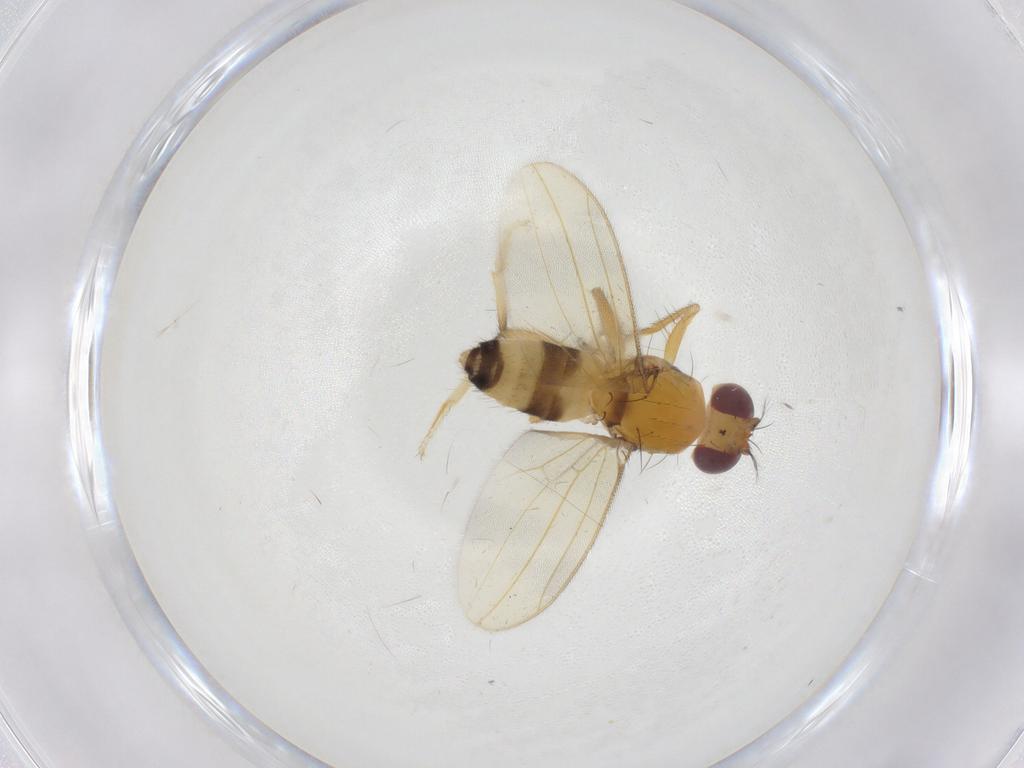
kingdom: Animalia
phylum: Arthropoda
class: Insecta
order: Diptera
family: Periscelididae
